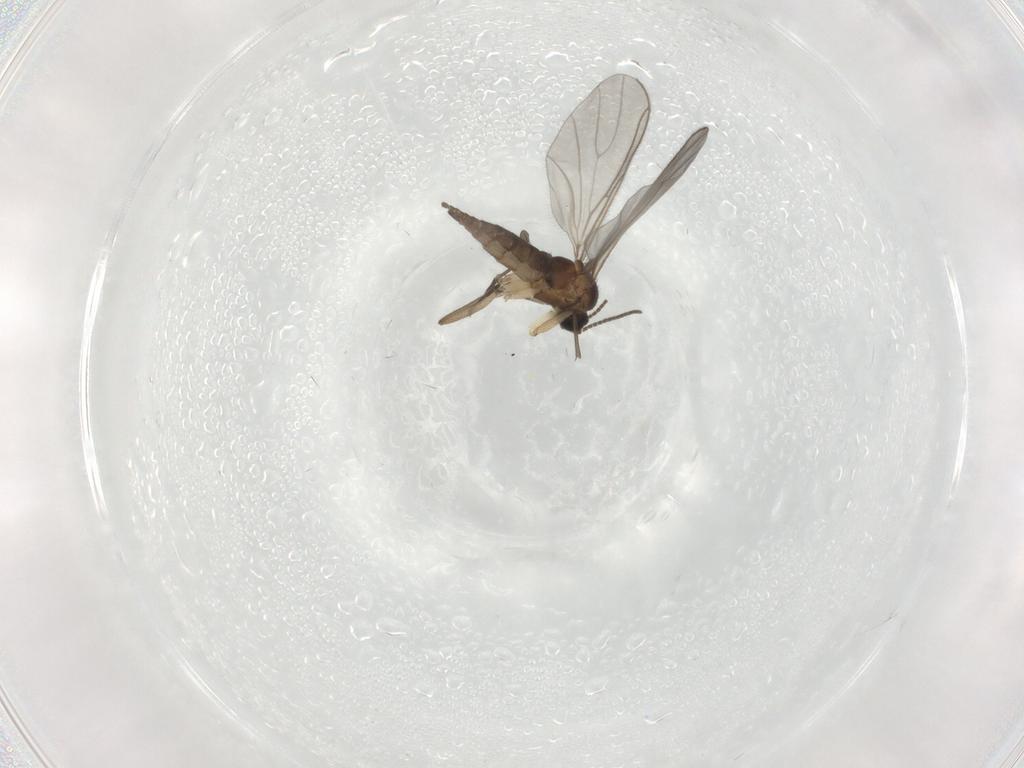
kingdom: Animalia
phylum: Arthropoda
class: Insecta
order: Diptera
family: Sciaridae
